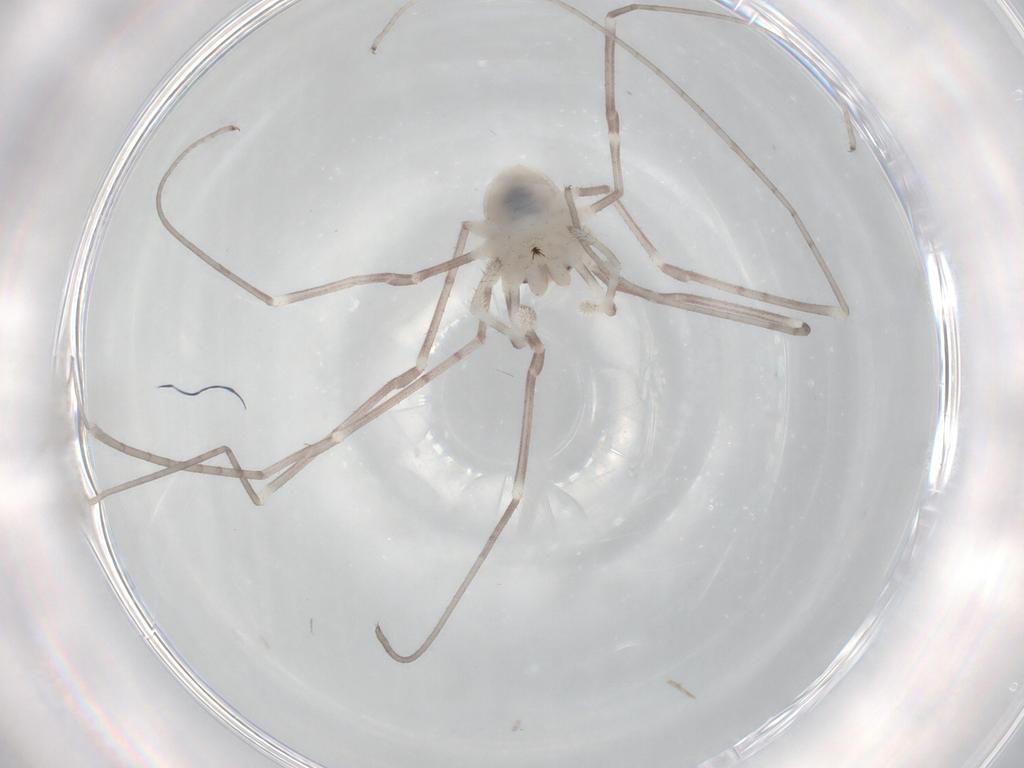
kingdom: Animalia
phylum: Arthropoda
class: Arachnida
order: Opiliones
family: Sclerosomatidae
